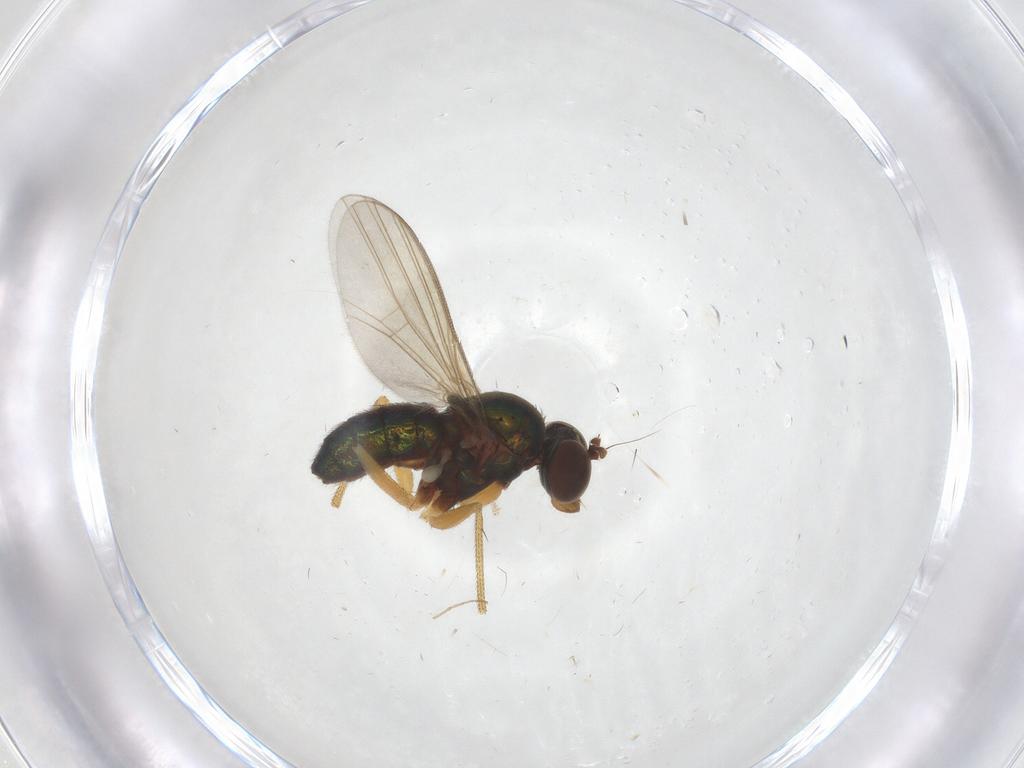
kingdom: Animalia
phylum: Arthropoda
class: Insecta
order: Diptera
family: Dolichopodidae
